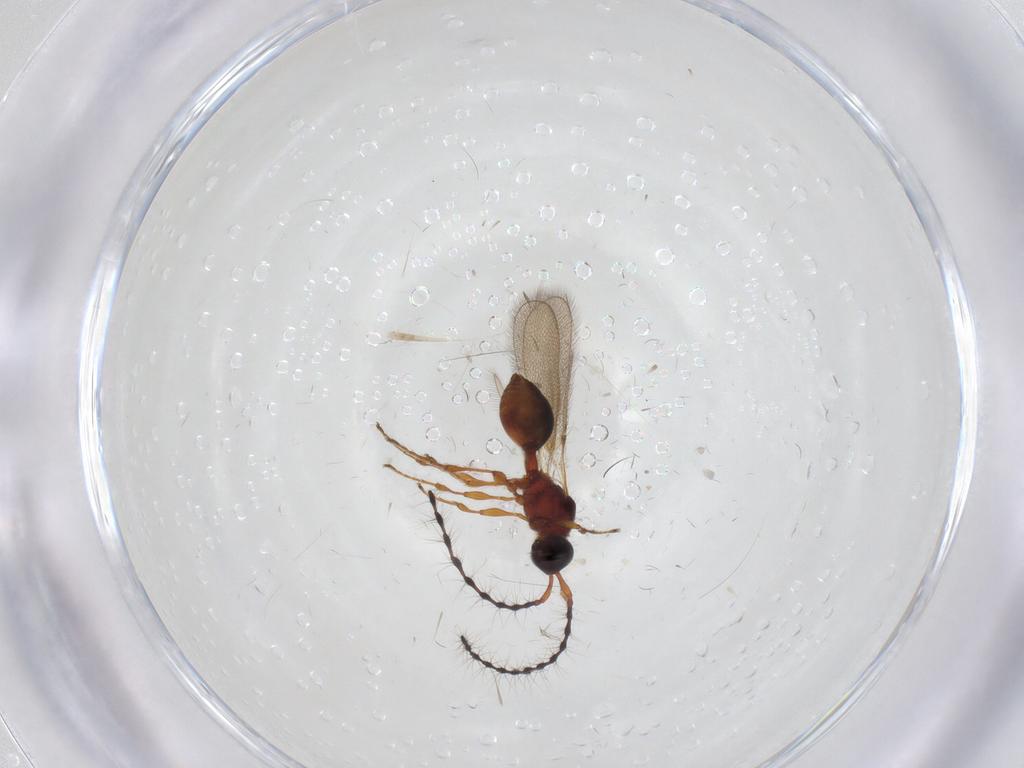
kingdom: Animalia
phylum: Arthropoda
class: Insecta
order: Hymenoptera
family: Diapriidae
